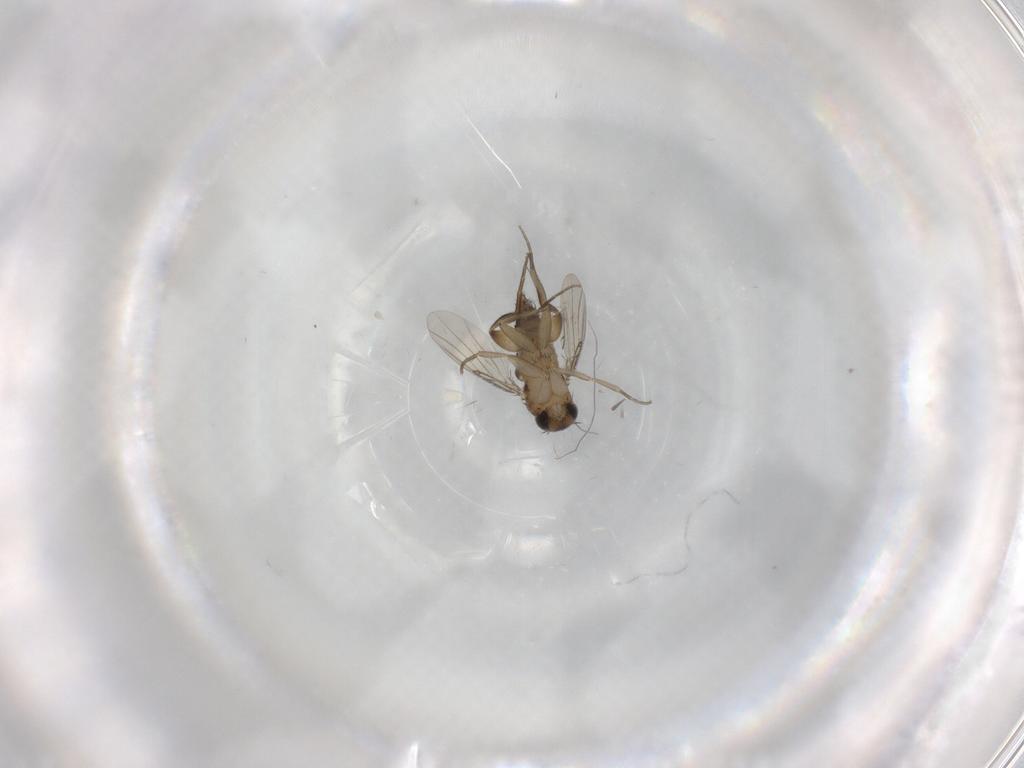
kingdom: Animalia
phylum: Arthropoda
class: Insecta
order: Diptera
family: Phoridae
